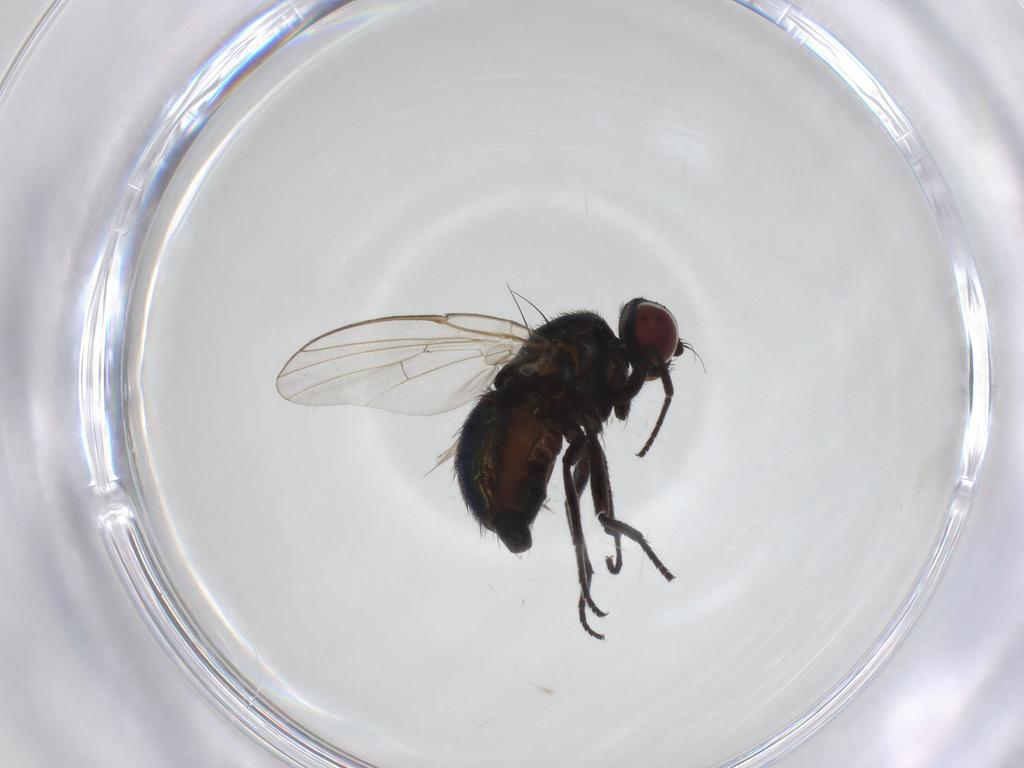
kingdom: Animalia
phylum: Arthropoda
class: Insecta
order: Diptera
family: Agromyzidae
